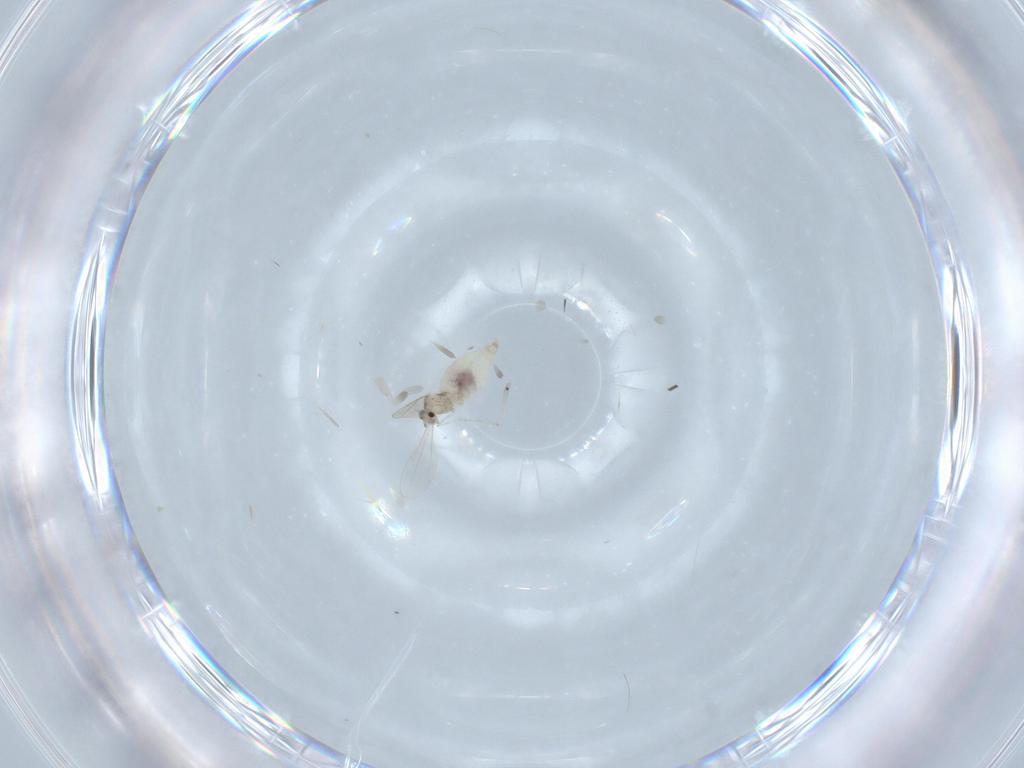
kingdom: Animalia
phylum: Arthropoda
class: Insecta
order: Diptera
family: Cecidomyiidae
